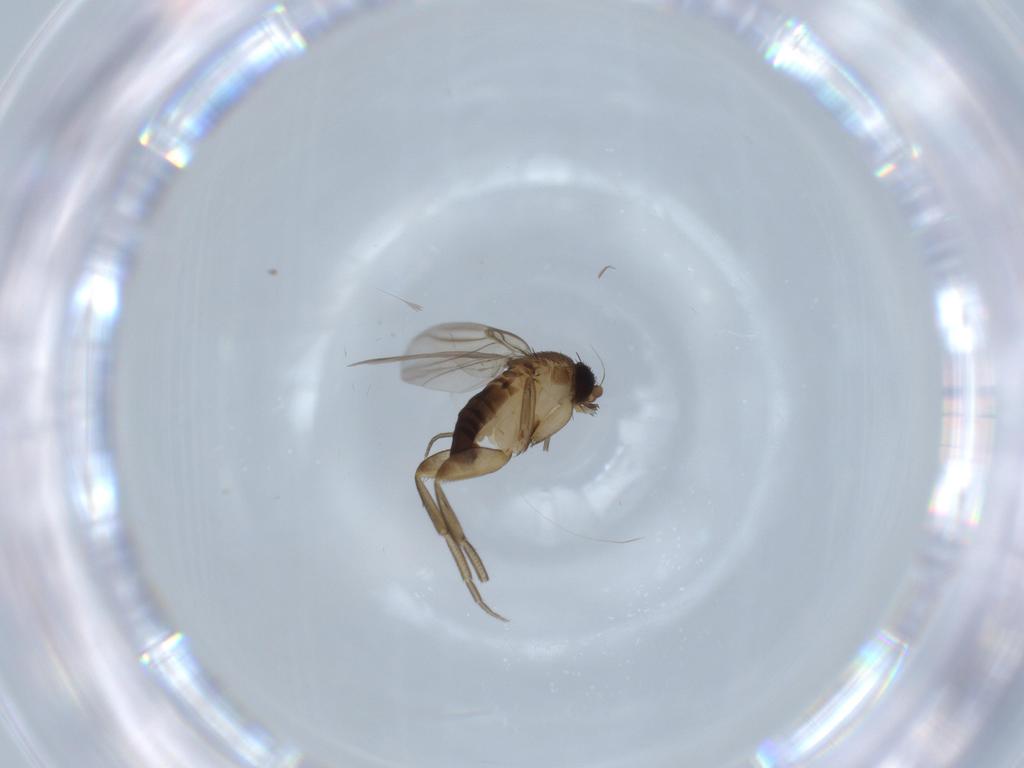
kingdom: Animalia
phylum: Arthropoda
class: Insecta
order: Diptera
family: Phoridae
